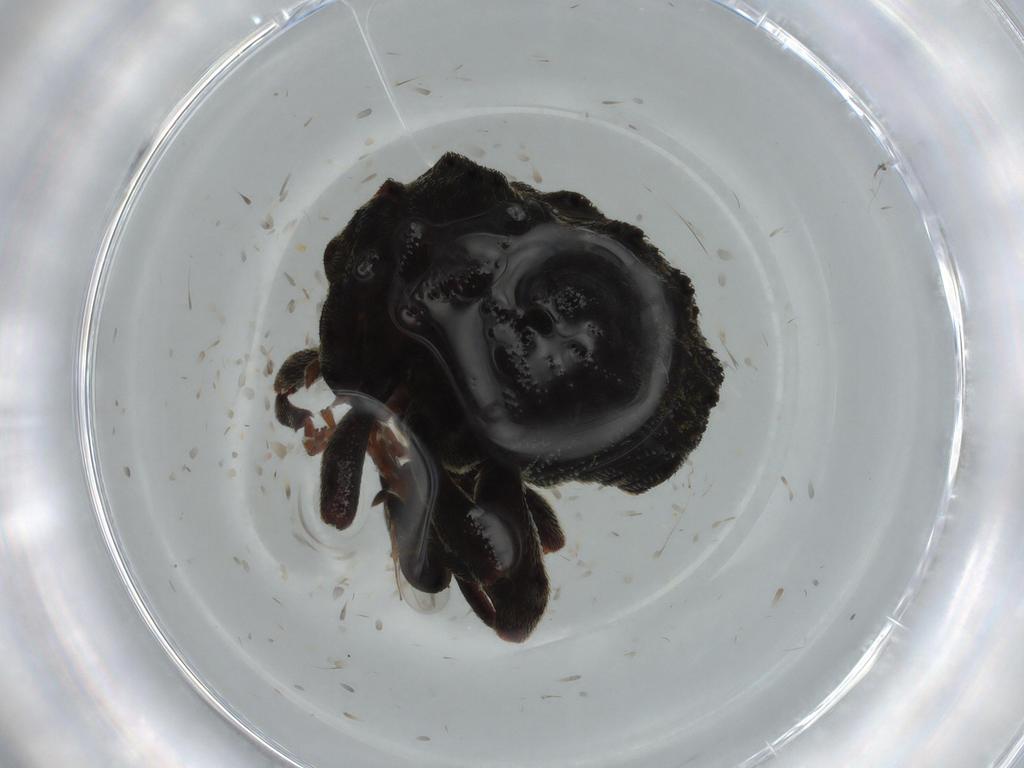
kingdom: Animalia
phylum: Arthropoda
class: Insecta
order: Coleoptera
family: Curculionidae
